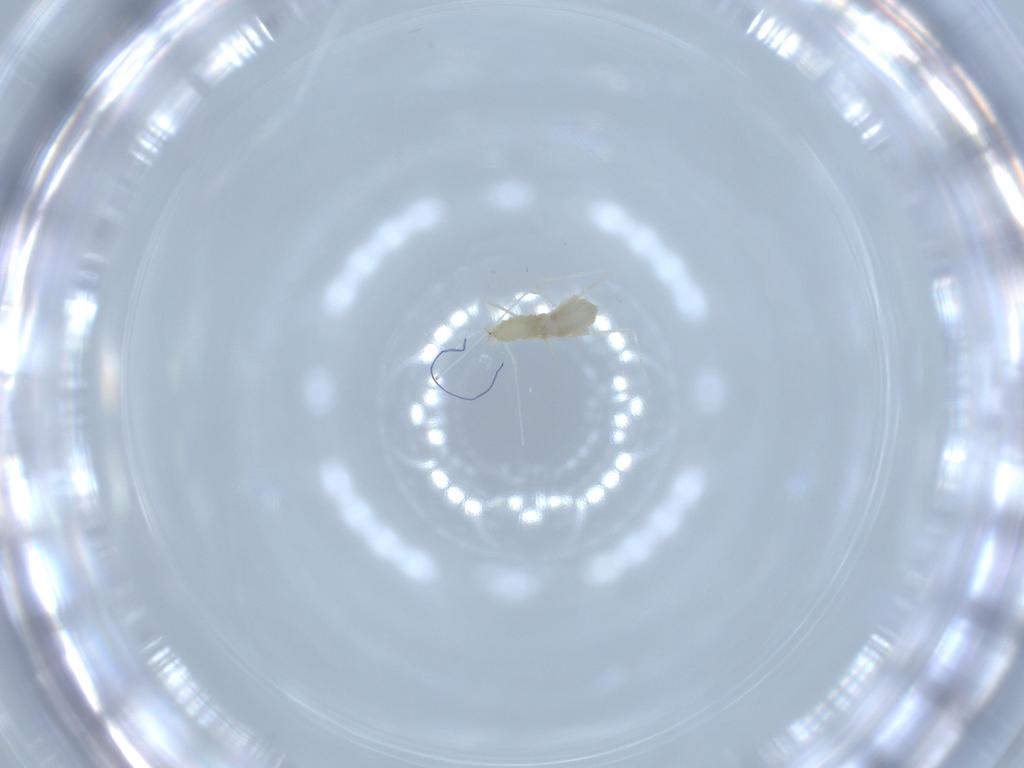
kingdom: Animalia
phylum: Arthropoda
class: Insecta
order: Diptera
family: Cecidomyiidae
